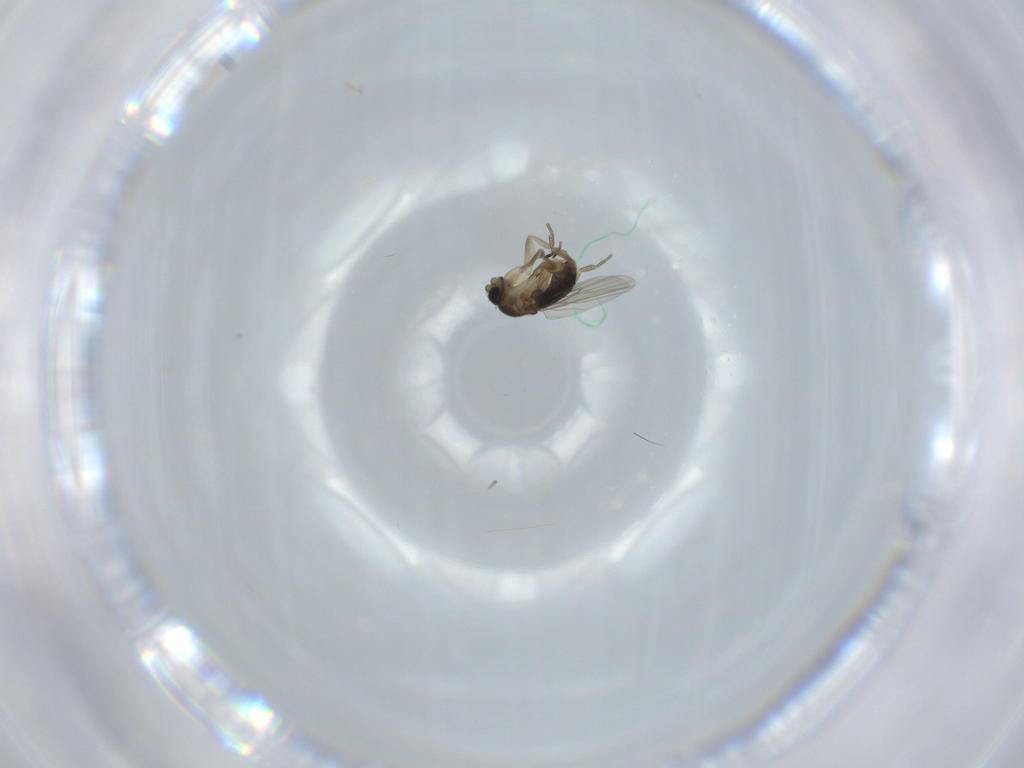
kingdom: Animalia
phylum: Arthropoda
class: Insecta
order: Diptera
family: Phoridae
